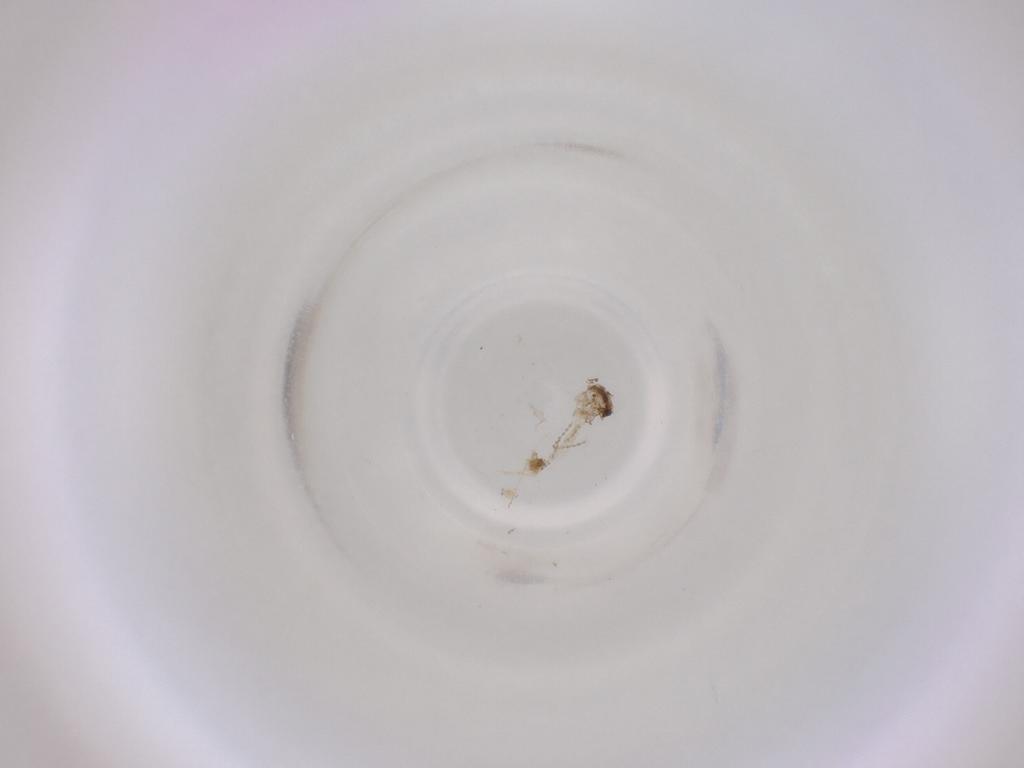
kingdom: Animalia
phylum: Arthropoda
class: Insecta
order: Diptera
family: Cecidomyiidae
